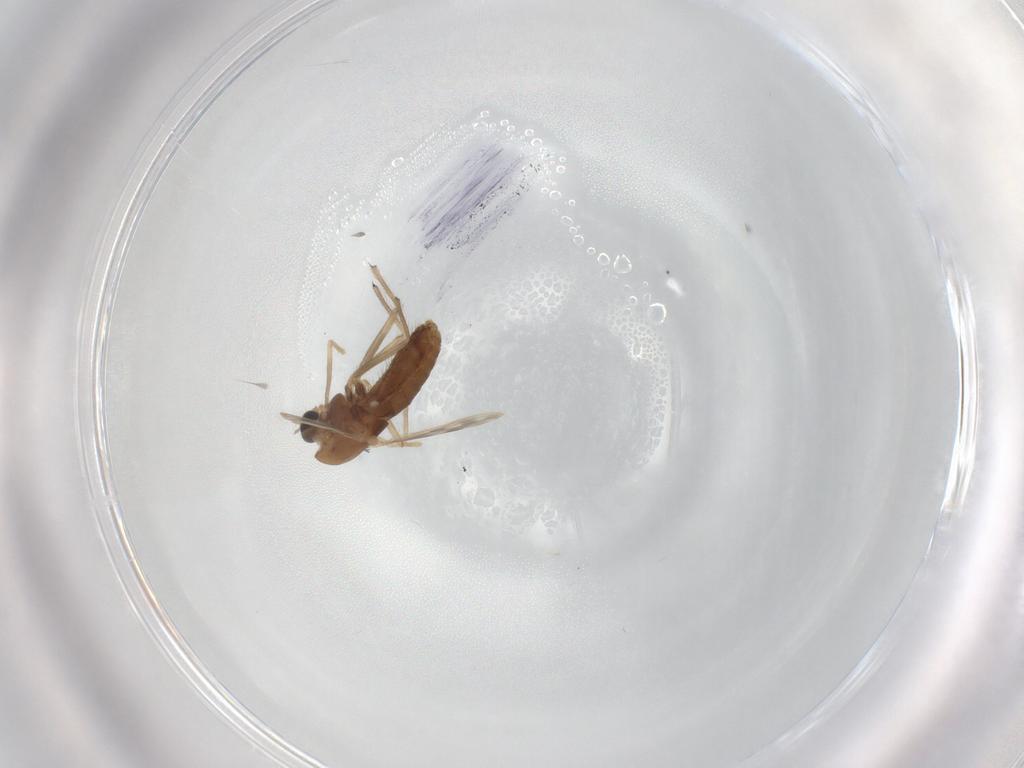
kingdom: Animalia
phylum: Arthropoda
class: Insecta
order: Diptera
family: Chironomidae
